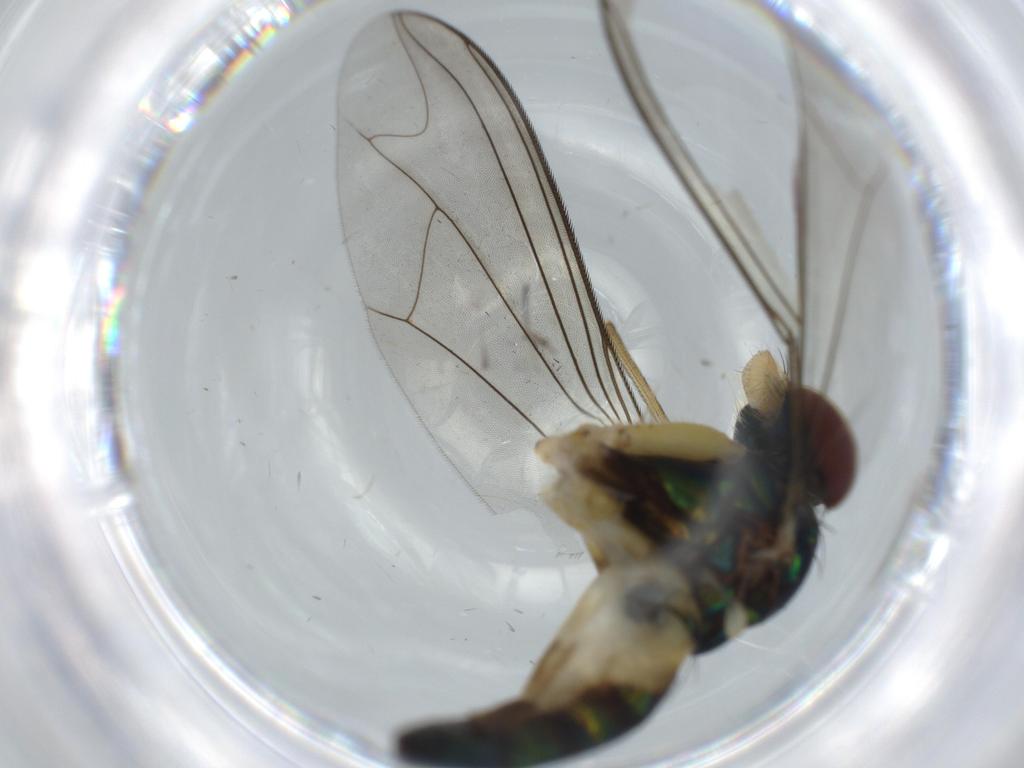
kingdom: Animalia
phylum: Arthropoda
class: Insecta
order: Diptera
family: Dolichopodidae
